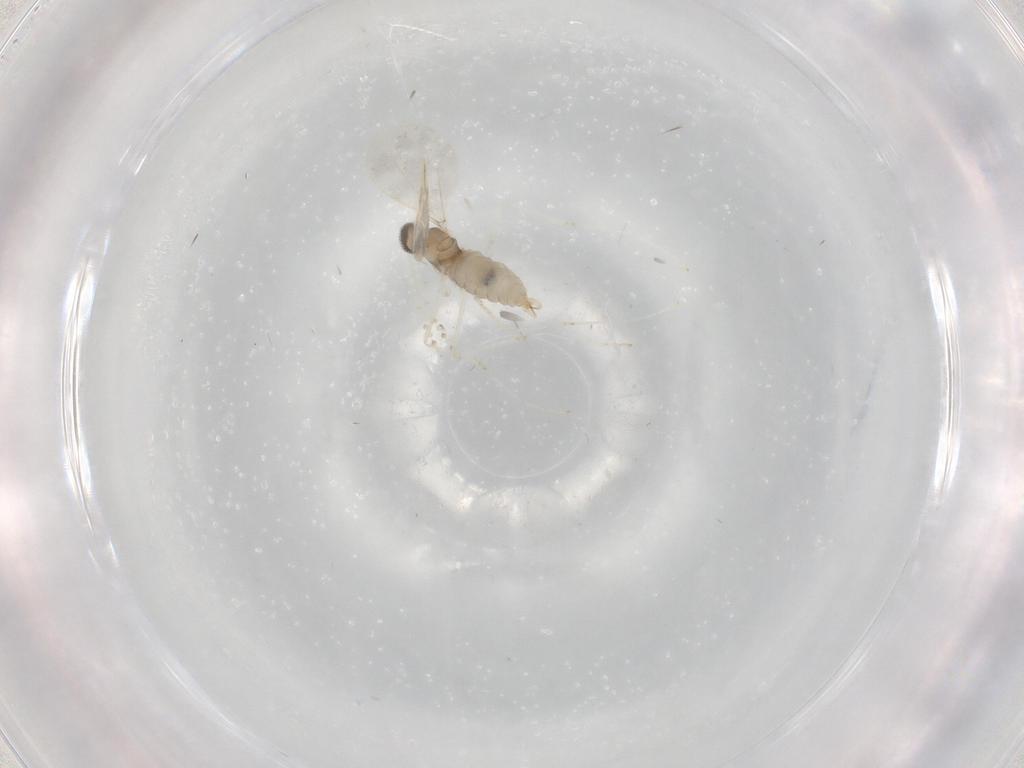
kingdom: Animalia
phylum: Arthropoda
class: Insecta
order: Diptera
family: Cecidomyiidae
